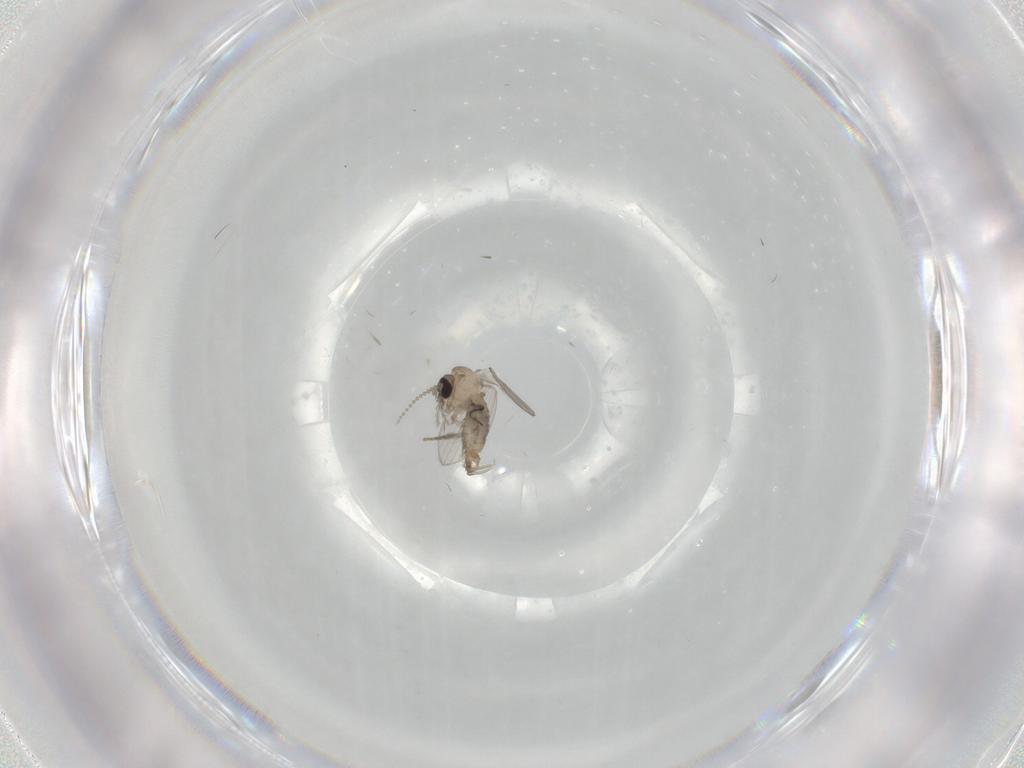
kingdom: Animalia
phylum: Arthropoda
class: Insecta
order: Diptera
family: Psychodidae
